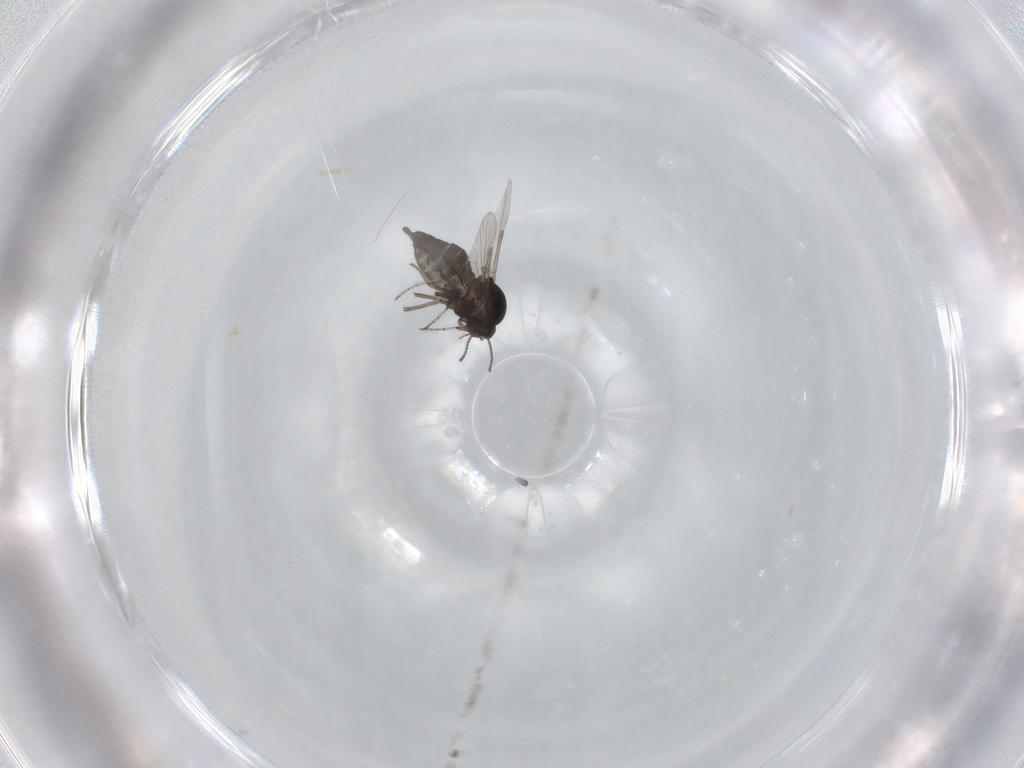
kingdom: Animalia
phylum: Arthropoda
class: Insecta
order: Diptera
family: Ceratopogonidae
